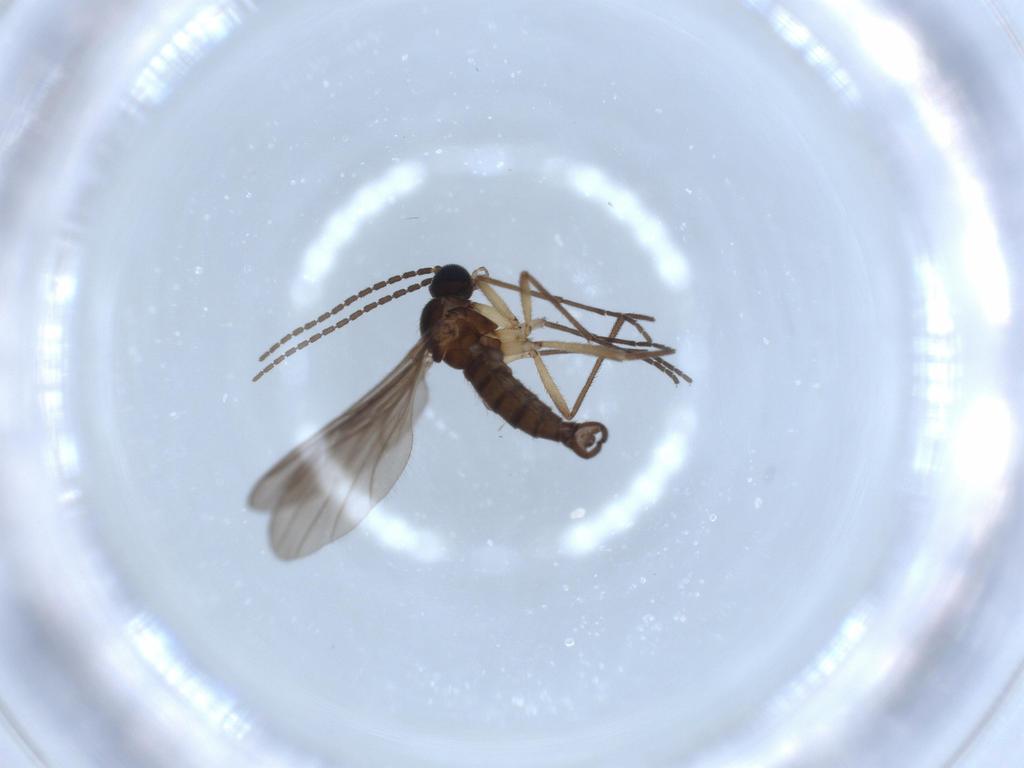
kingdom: Animalia
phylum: Arthropoda
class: Insecta
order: Diptera
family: Sciaridae
